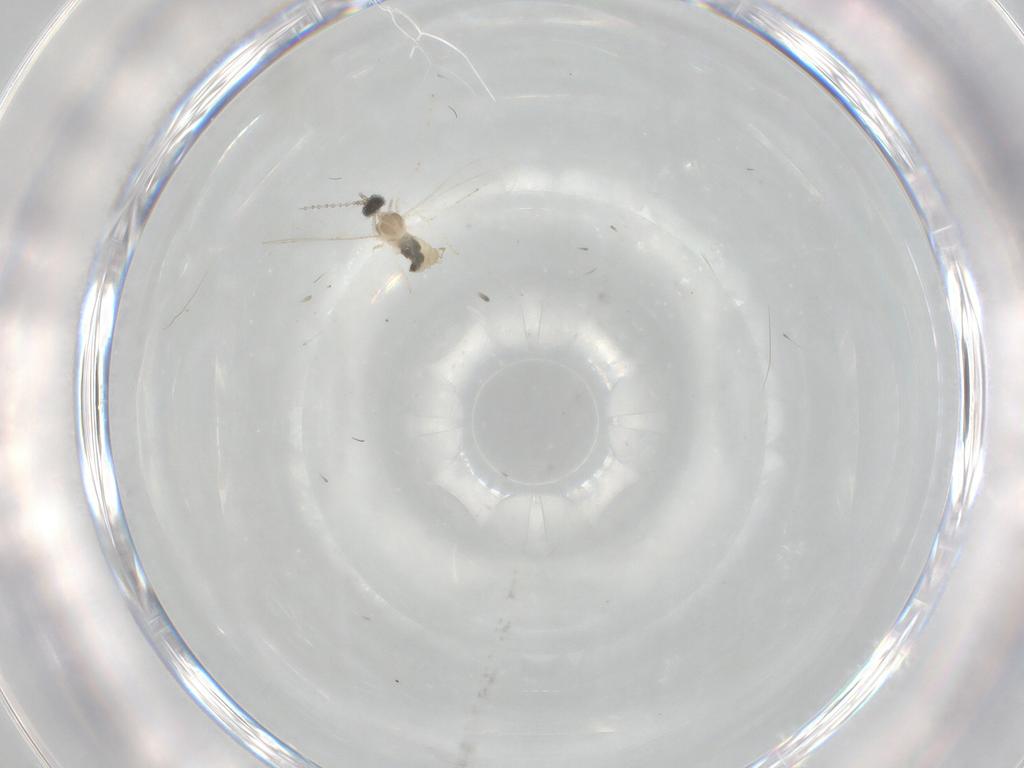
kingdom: Animalia
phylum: Arthropoda
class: Insecta
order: Diptera
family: Cecidomyiidae
